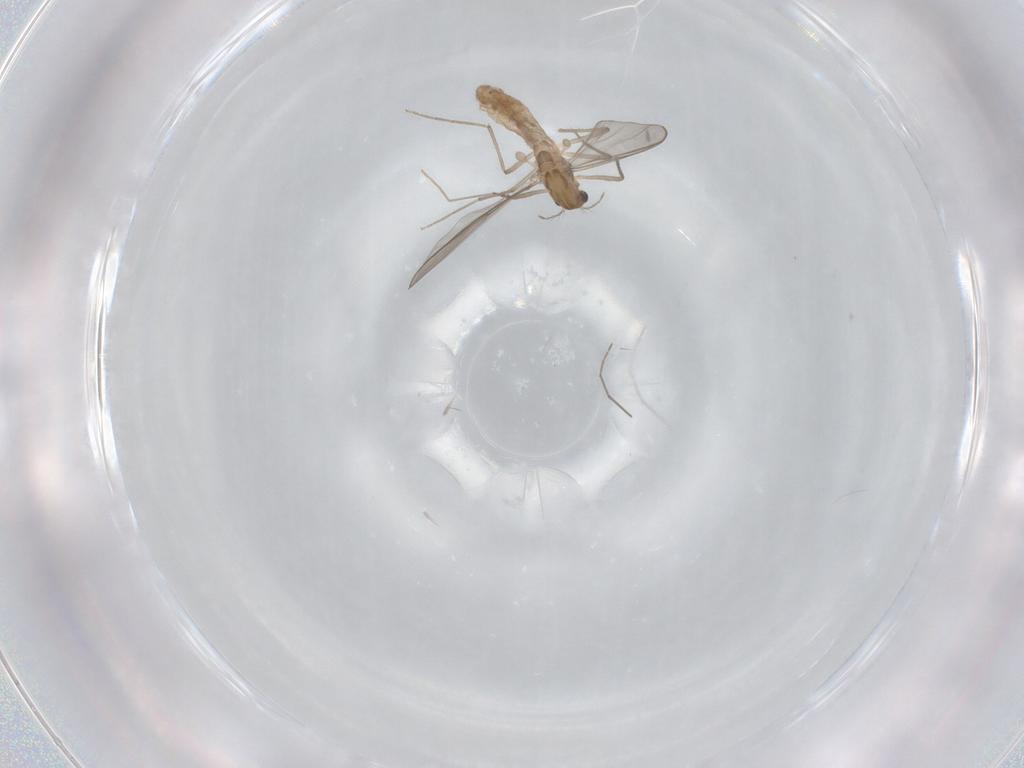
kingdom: Animalia
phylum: Arthropoda
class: Insecta
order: Diptera
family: Chironomidae
